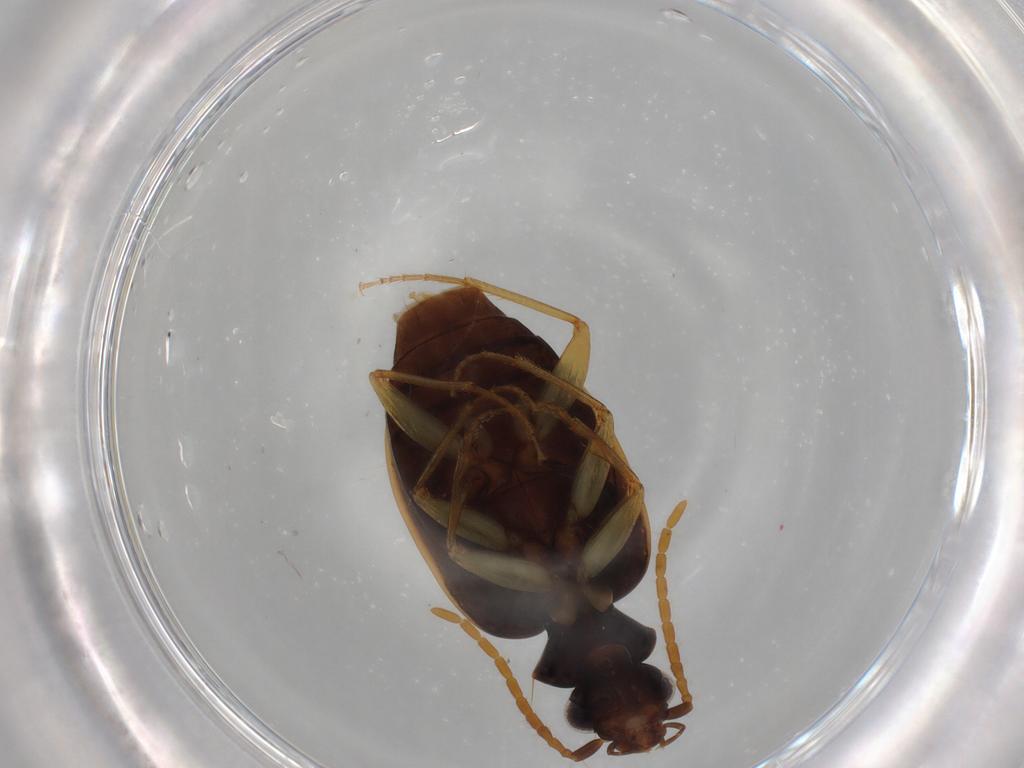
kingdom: Animalia
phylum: Arthropoda
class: Insecta
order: Coleoptera
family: Carabidae
